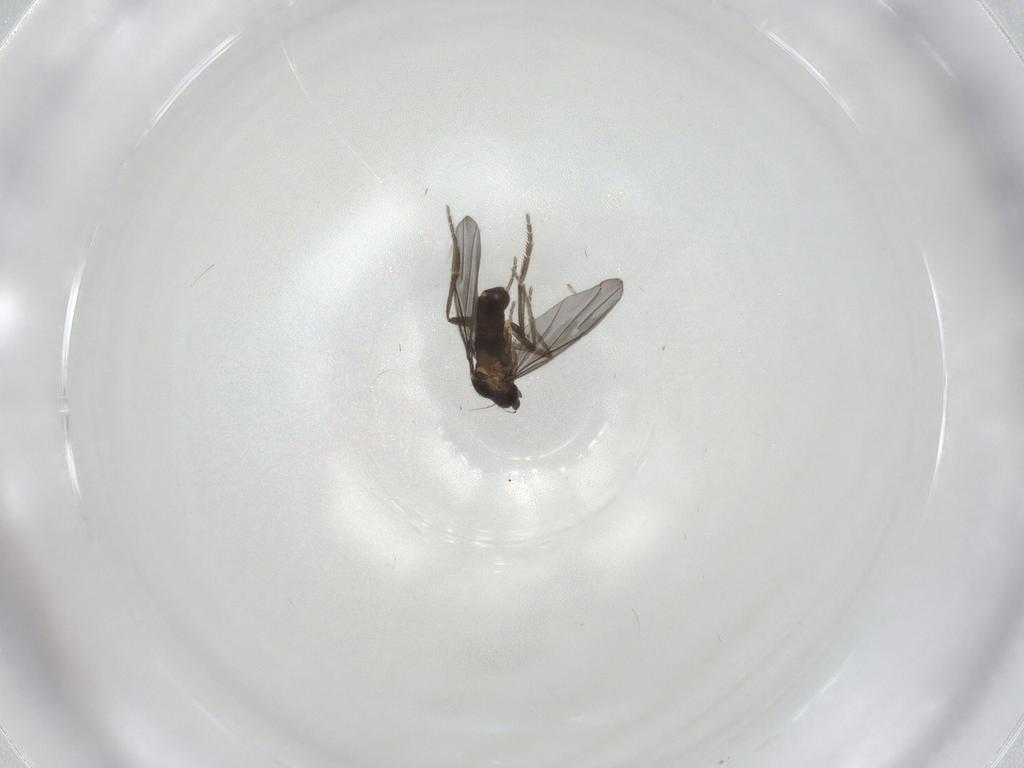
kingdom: Animalia
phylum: Arthropoda
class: Insecta
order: Diptera
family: Phoridae
